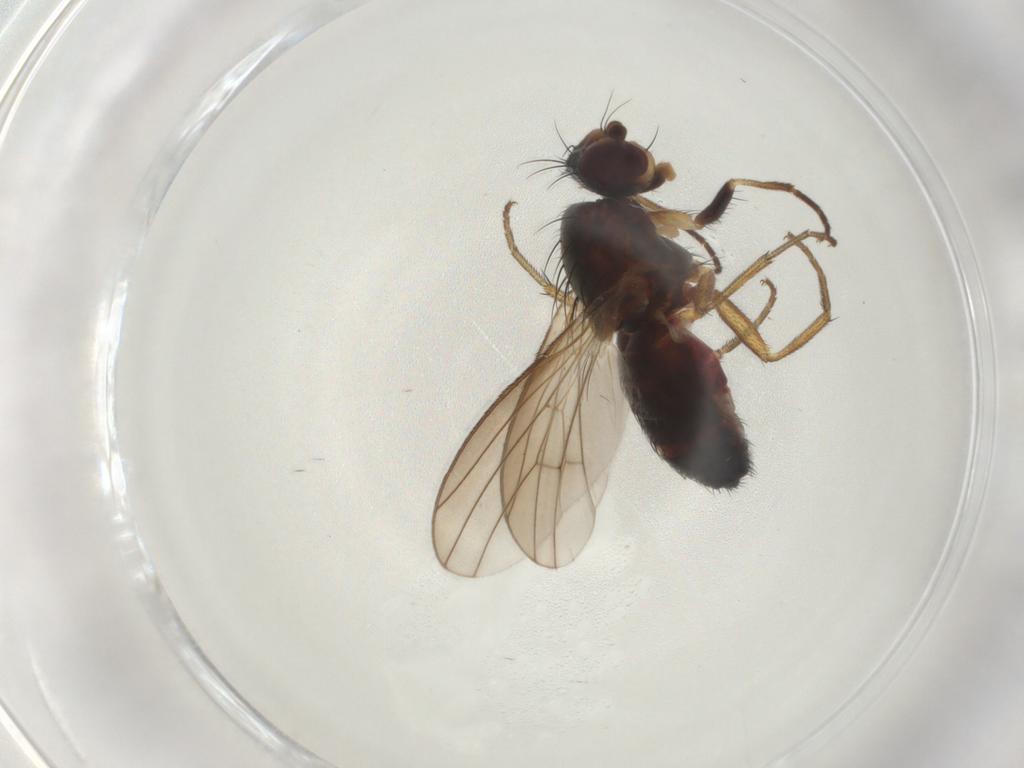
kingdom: Animalia
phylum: Arthropoda
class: Insecta
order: Diptera
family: Heleomyzidae
